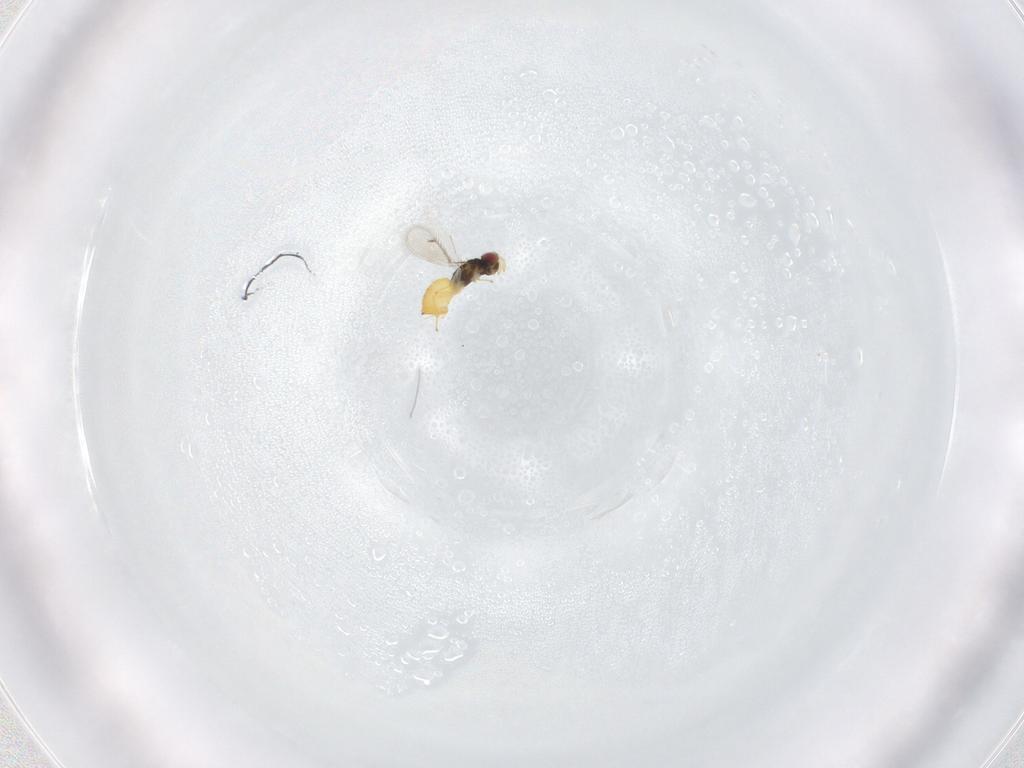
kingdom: Animalia
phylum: Arthropoda
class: Insecta
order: Hymenoptera
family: Eulophidae
